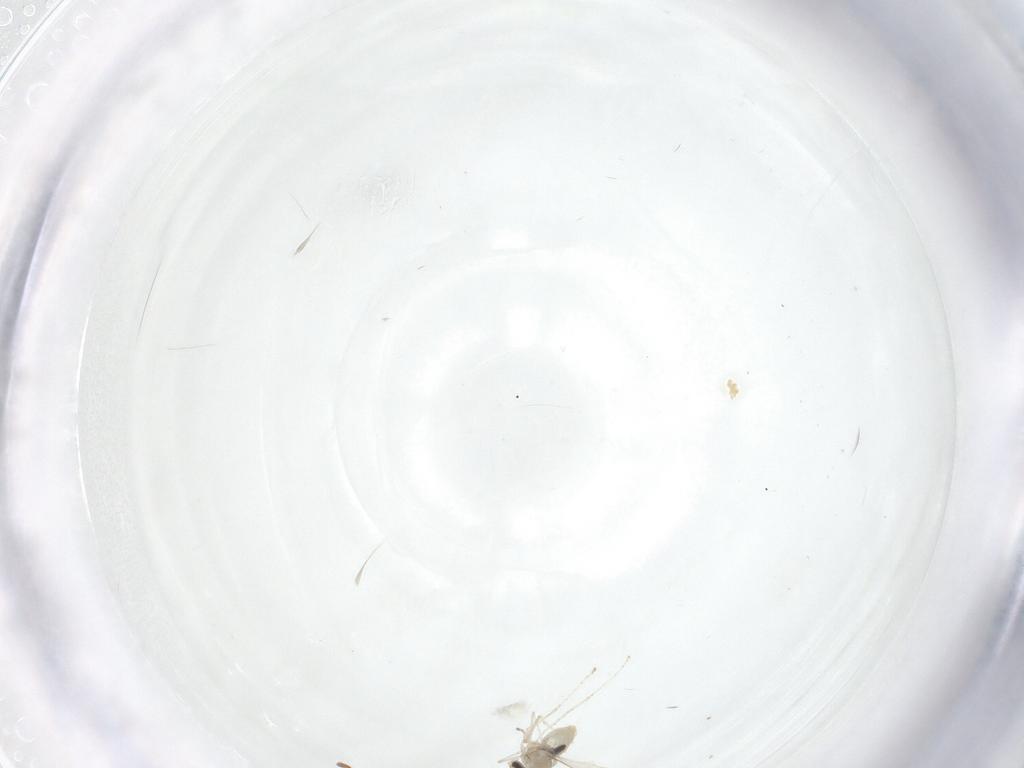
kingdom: Animalia
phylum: Arthropoda
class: Insecta
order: Diptera
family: Cecidomyiidae
